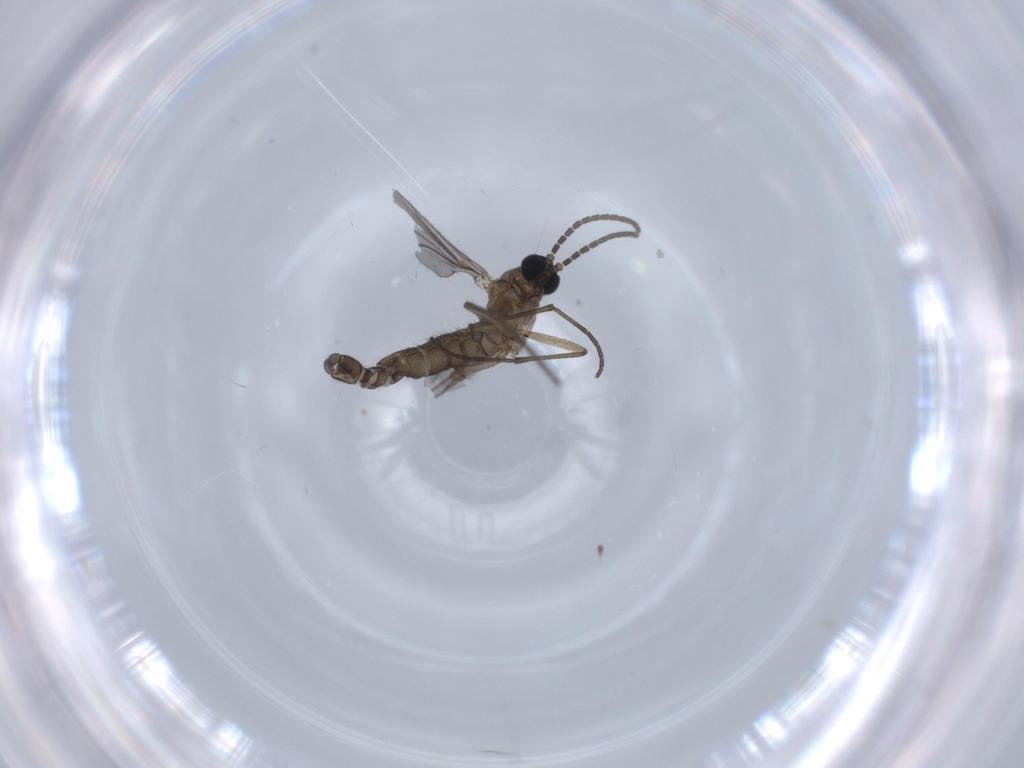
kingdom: Animalia
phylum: Arthropoda
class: Insecta
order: Diptera
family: Sciaridae
